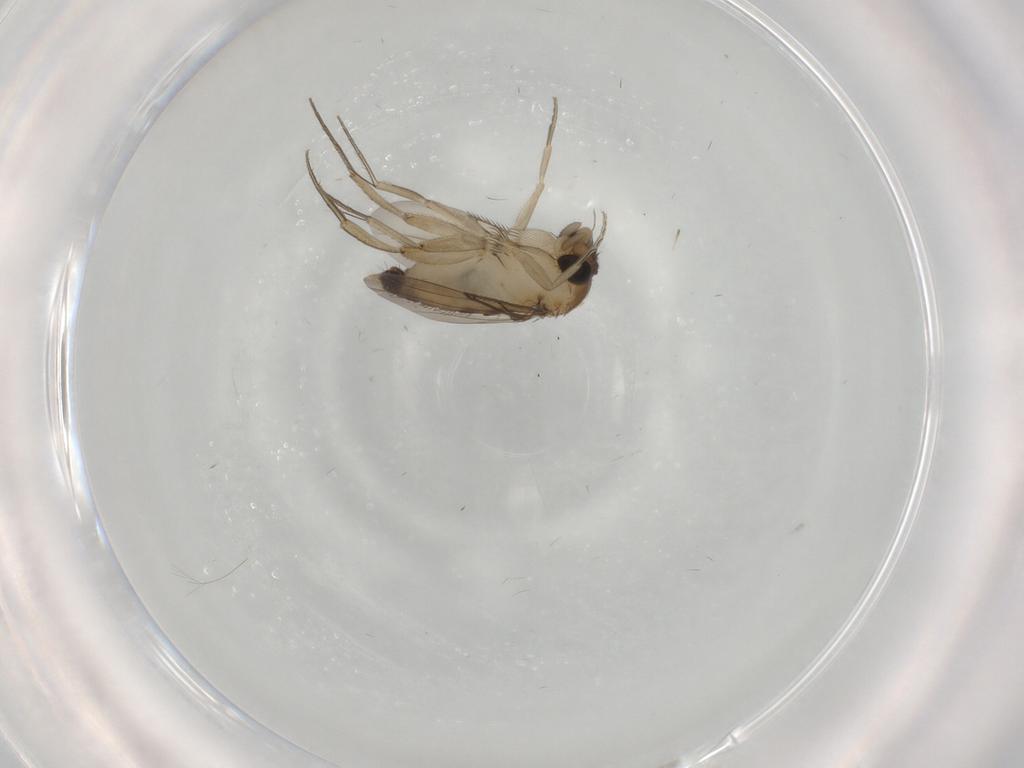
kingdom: Animalia
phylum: Arthropoda
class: Insecta
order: Diptera
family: Phoridae
